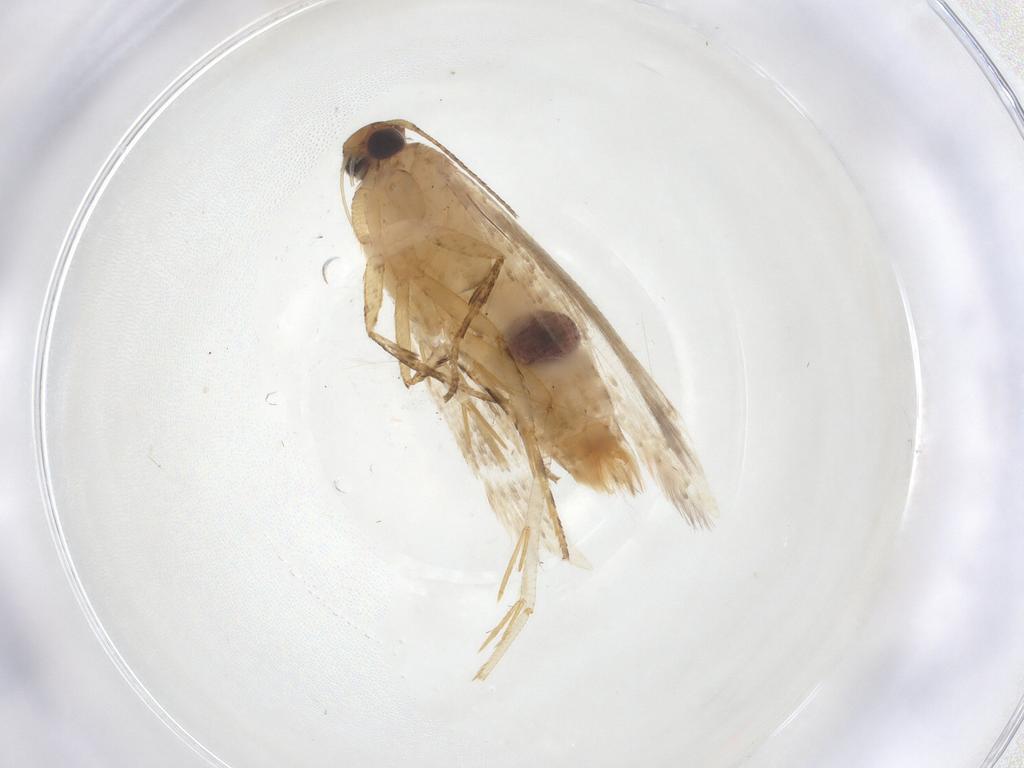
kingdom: Animalia
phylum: Arthropoda
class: Insecta
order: Lepidoptera
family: Gelechiidae
